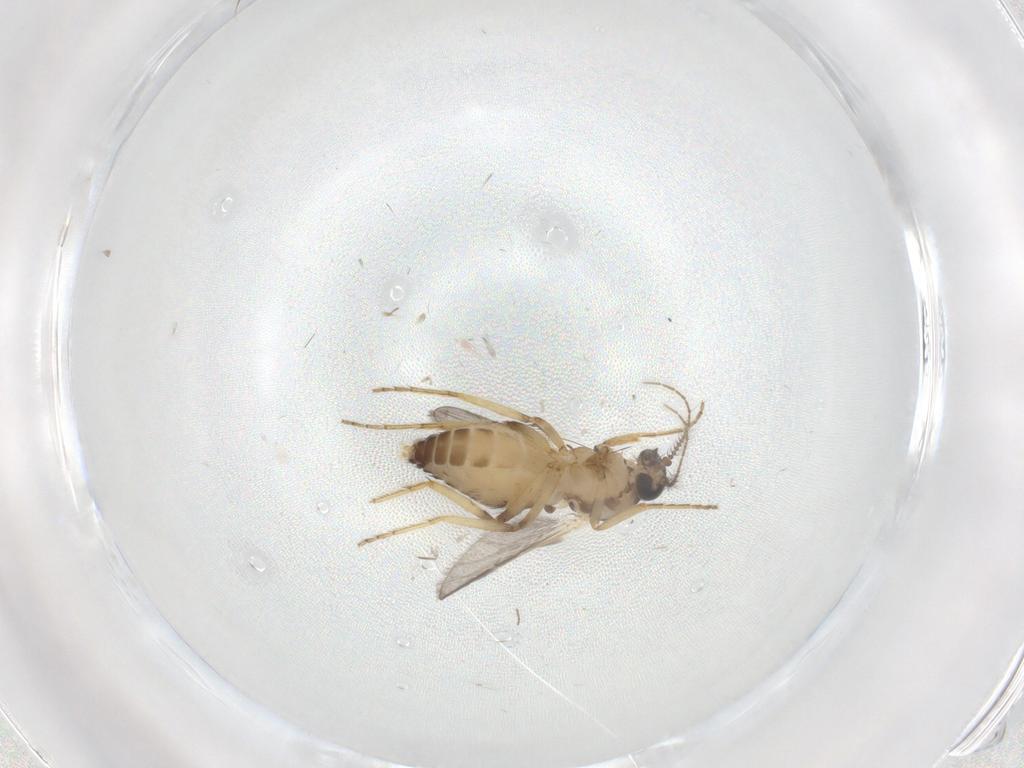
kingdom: Animalia
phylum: Arthropoda
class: Insecta
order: Diptera
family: Ceratopogonidae
